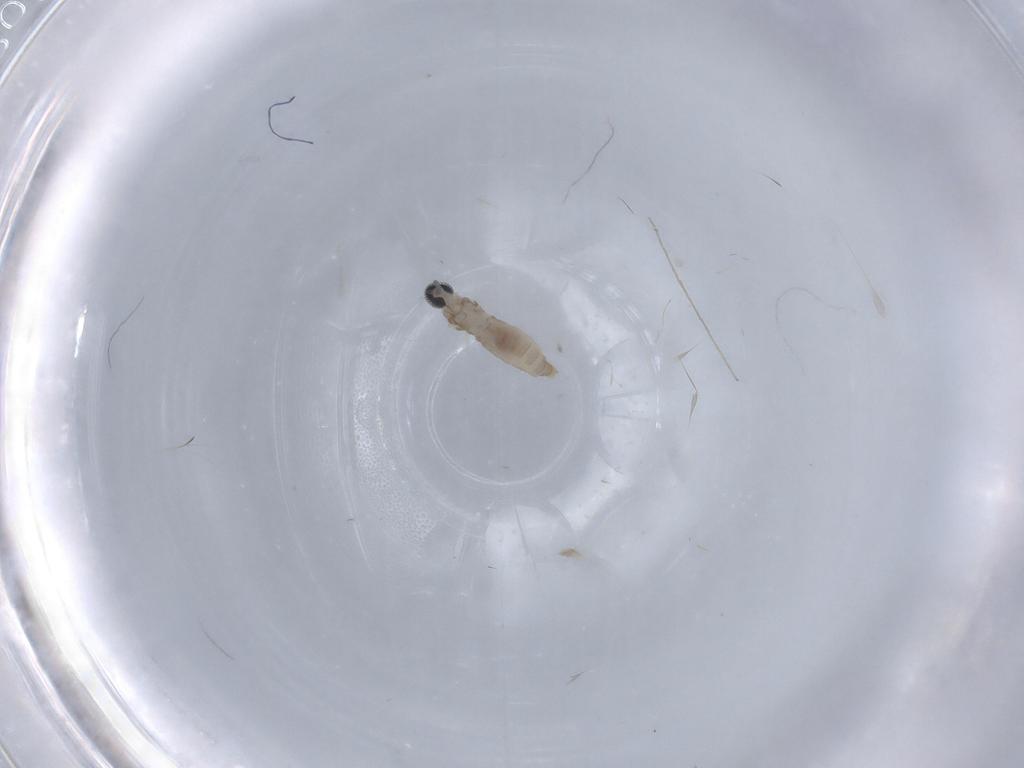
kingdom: Animalia
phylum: Arthropoda
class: Insecta
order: Diptera
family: Cecidomyiidae
